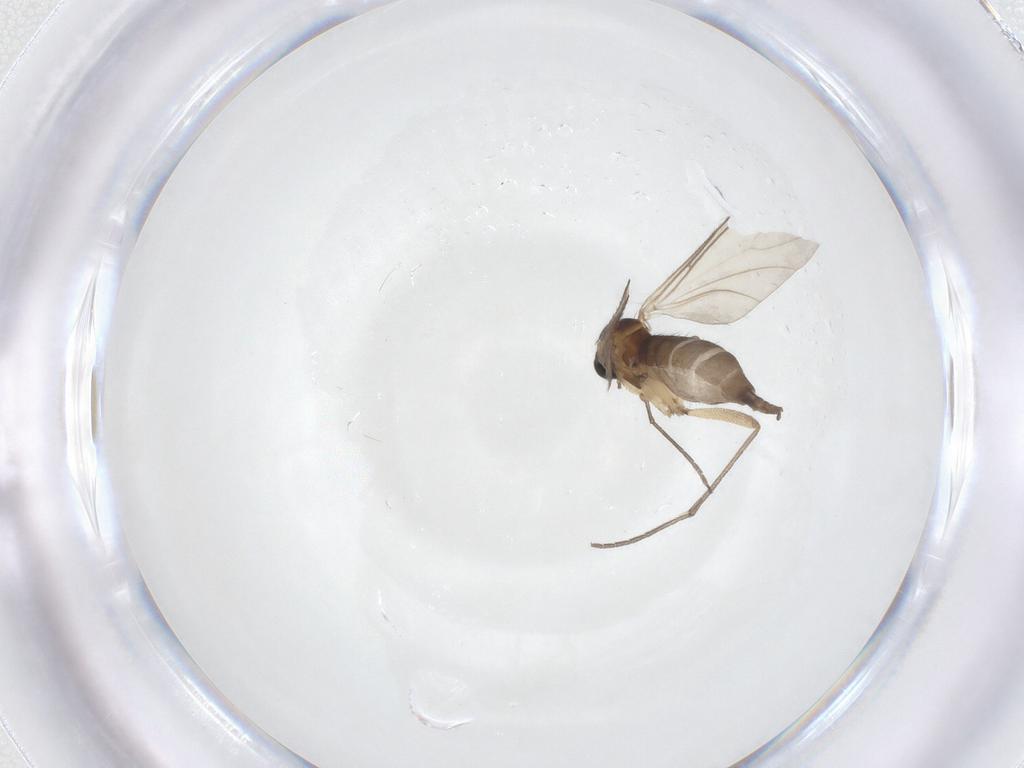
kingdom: Animalia
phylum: Arthropoda
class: Insecta
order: Diptera
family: Sciaridae
